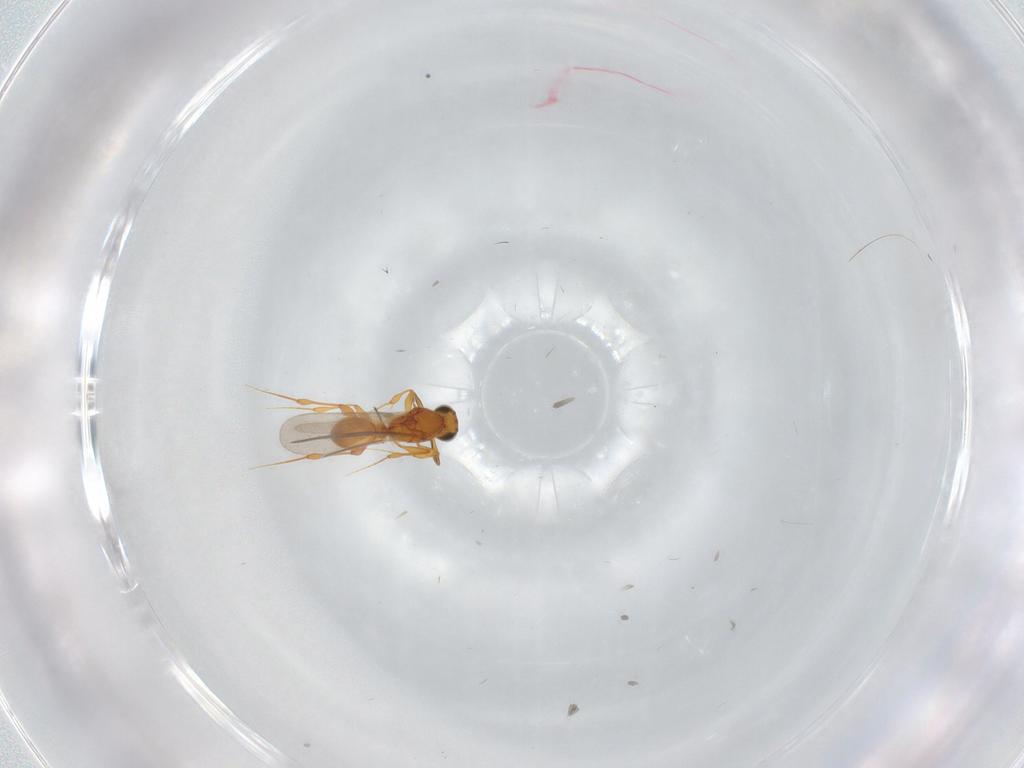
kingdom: Animalia
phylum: Arthropoda
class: Insecta
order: Hymenoptera
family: Platygastridae
